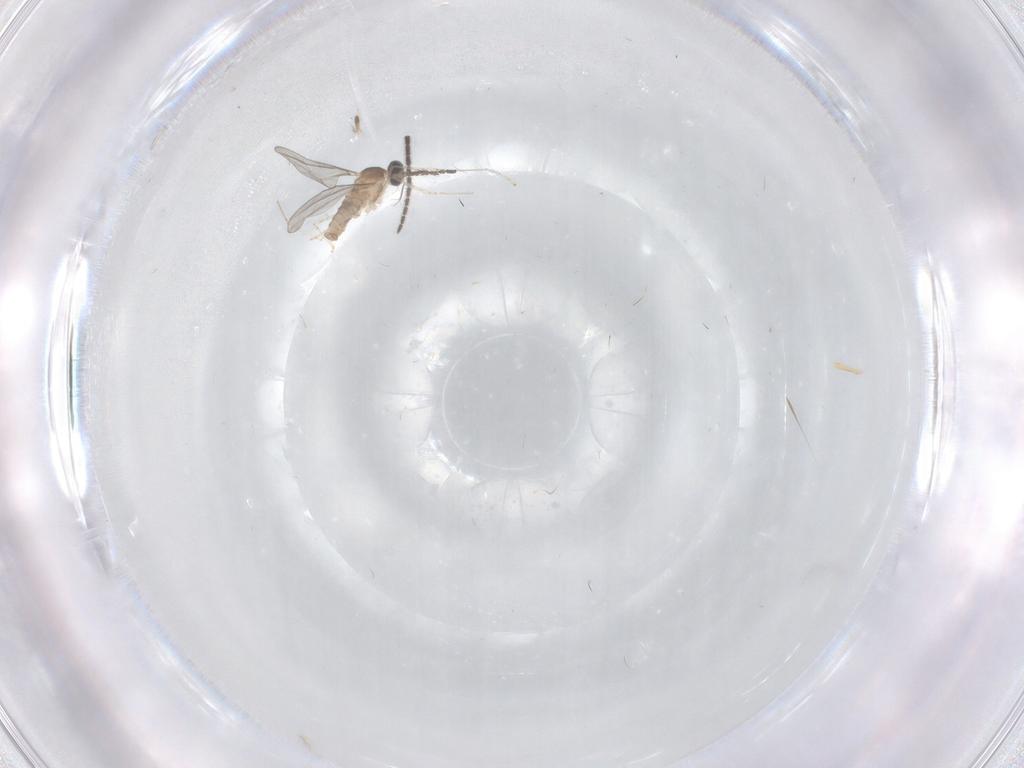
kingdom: Animalia
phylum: Arthropoda
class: Insecta
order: Diptera
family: Sciaridae
